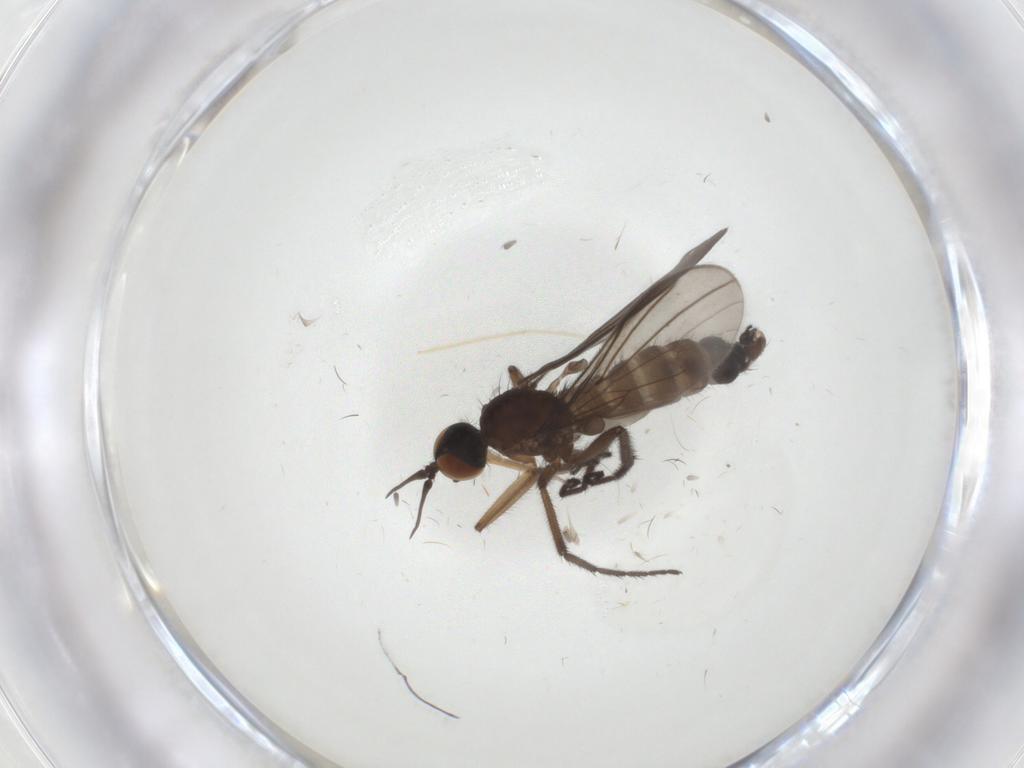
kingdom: Animalia
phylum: Arthropoda
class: Insecta
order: Diptera
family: Empididae
